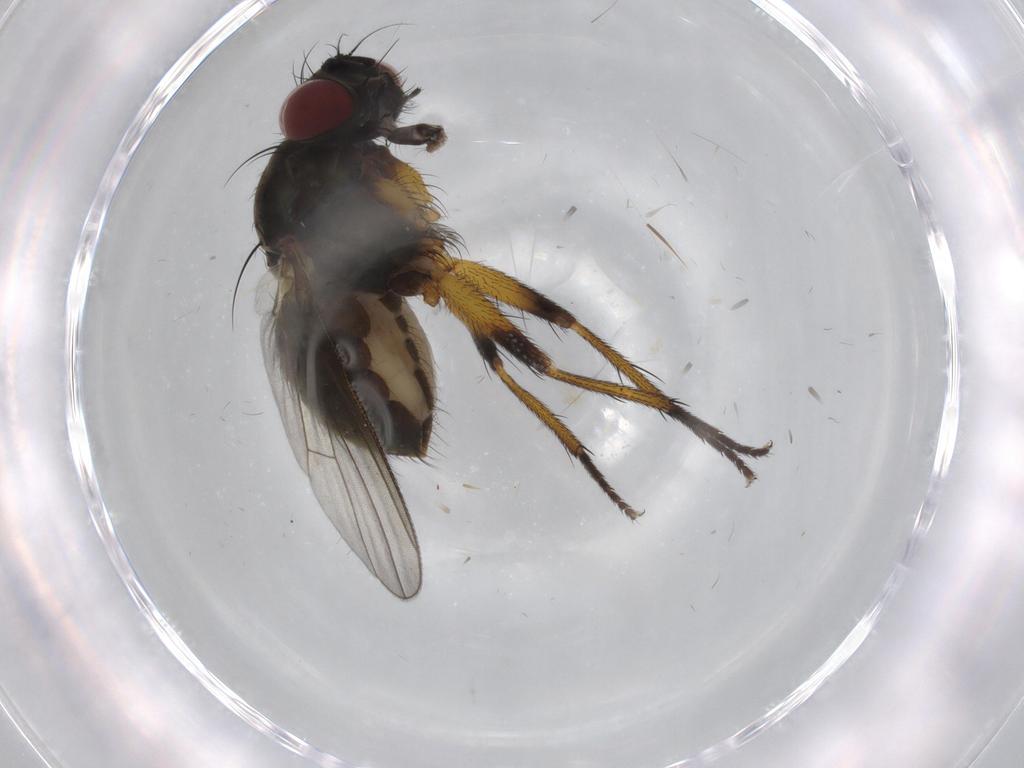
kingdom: Animalia
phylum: Arthropoda
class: Insecta
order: Diptera
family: Muscidae
